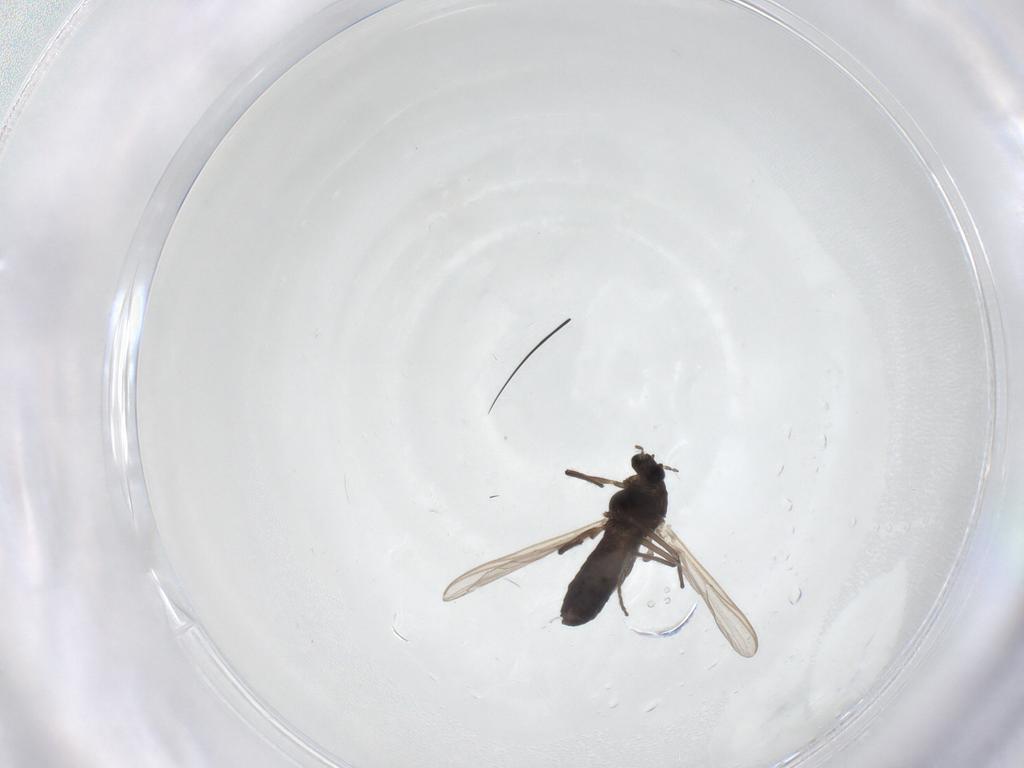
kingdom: Animalia
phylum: Arthropoda
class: Insecta
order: Diptera
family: Chironomidae
